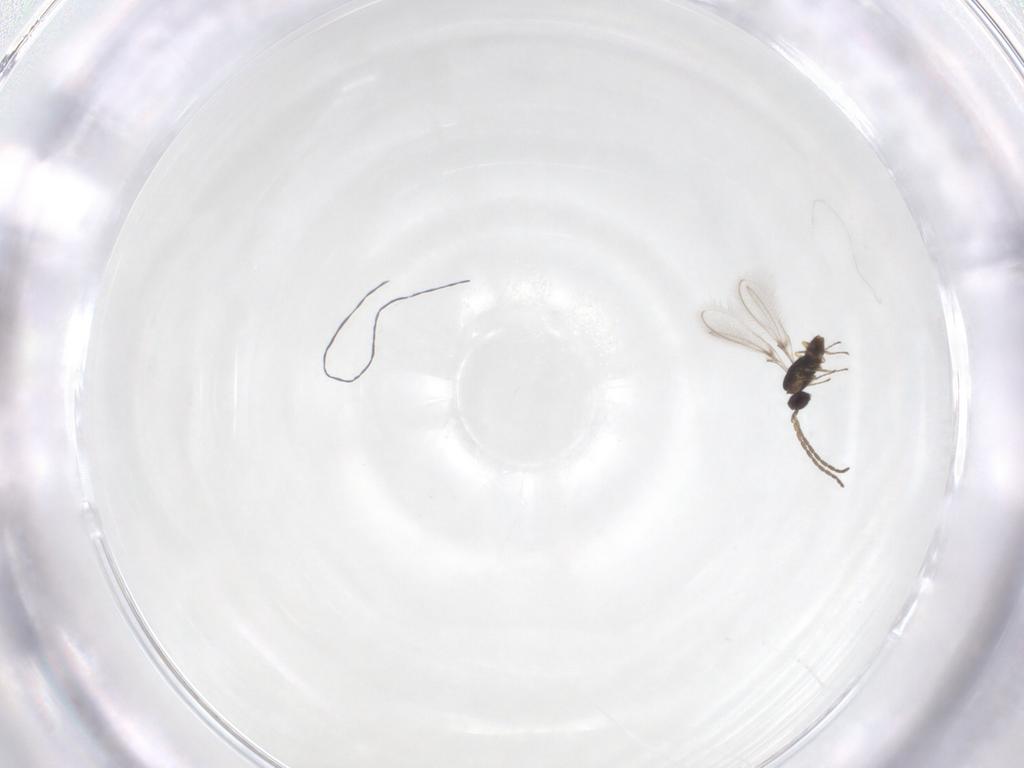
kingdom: Animalia
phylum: Arthropoda
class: Insecta
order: Hymenoptera
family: Mymaridae
